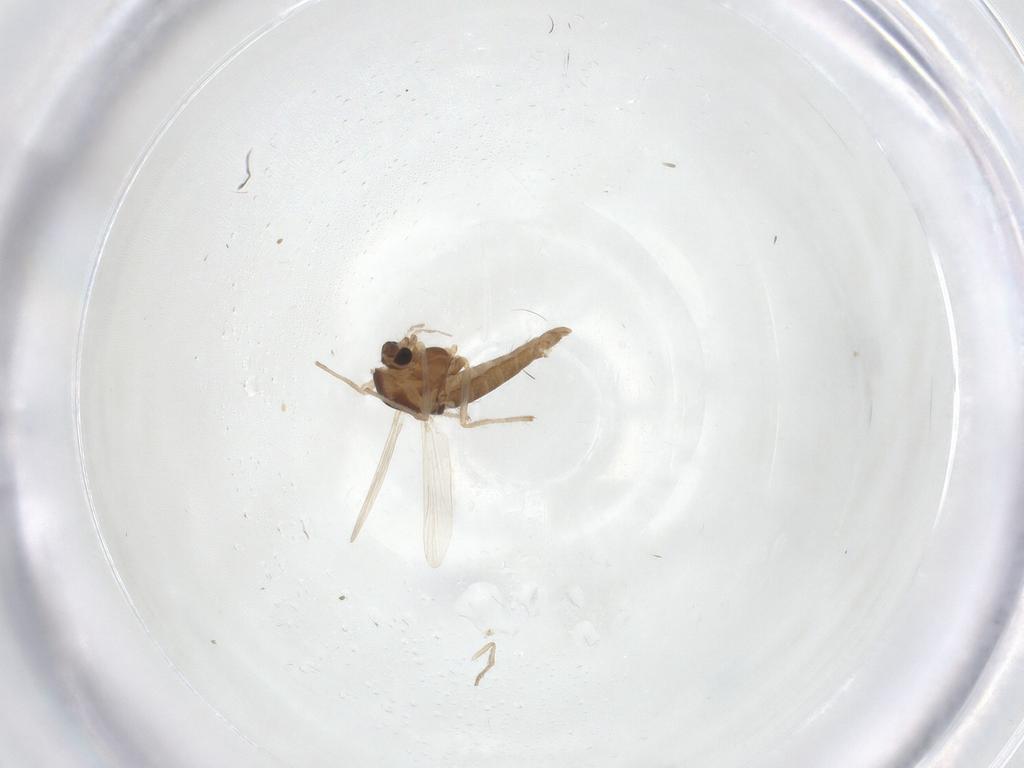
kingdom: Animalia
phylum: Arthropoda
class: Insecta
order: Diptera
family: Chironomidae
